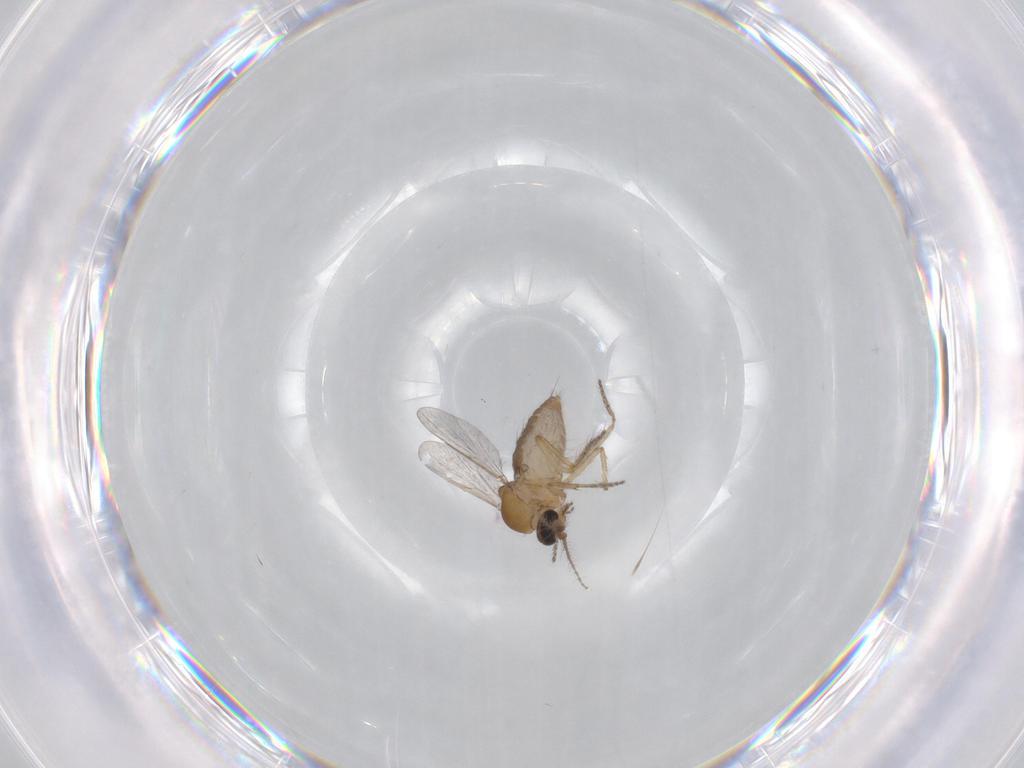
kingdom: Animalia
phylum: Arthropoda
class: Insecta
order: Diptera
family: Ceratopogonidae
